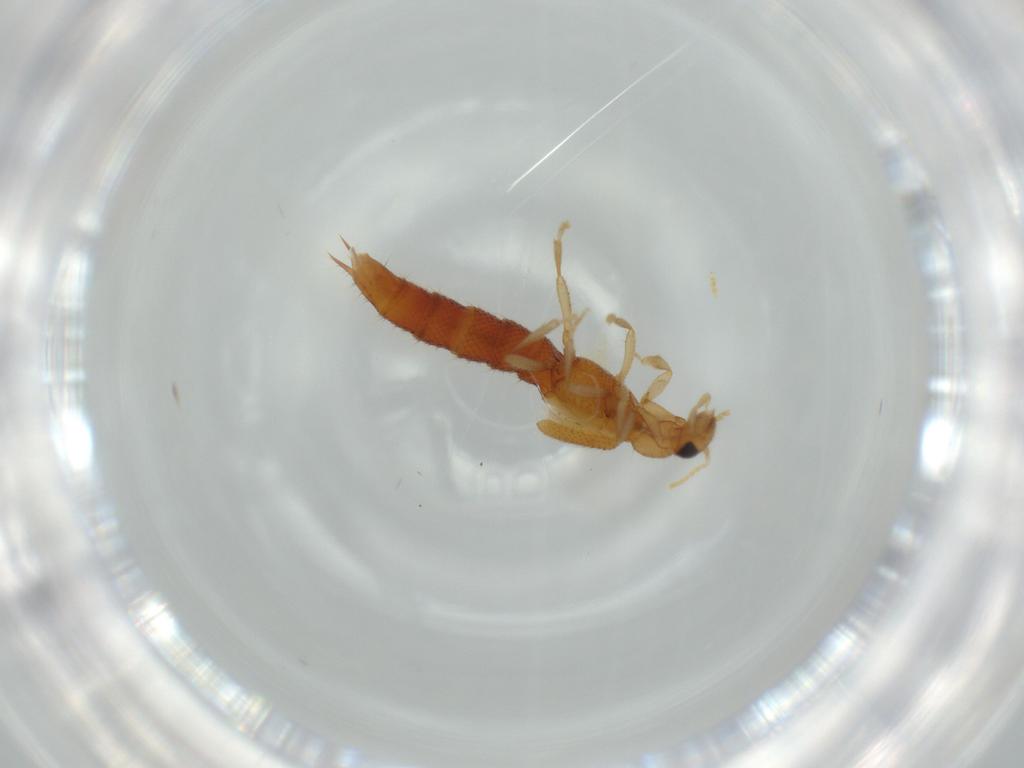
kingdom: Animalia
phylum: Arthropoda
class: Insecta
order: Coleoptera
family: Staphylinidae
